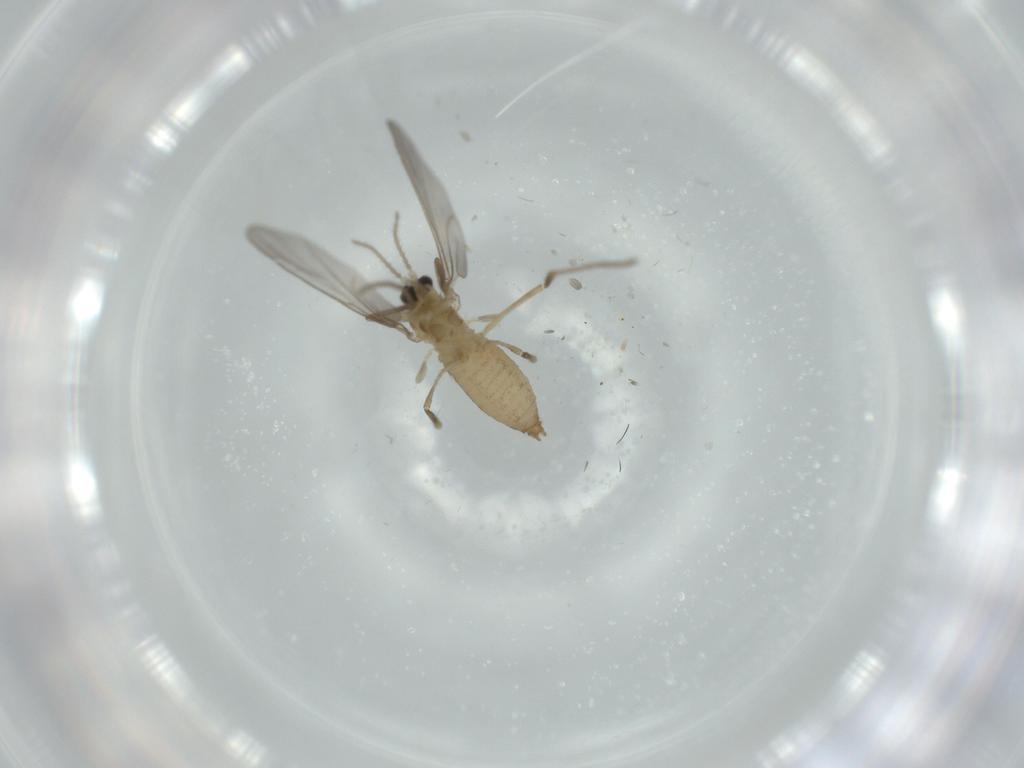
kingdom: Animalia
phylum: Arthropoda
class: Insecta
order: Diptera
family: Cecidomyiidae
